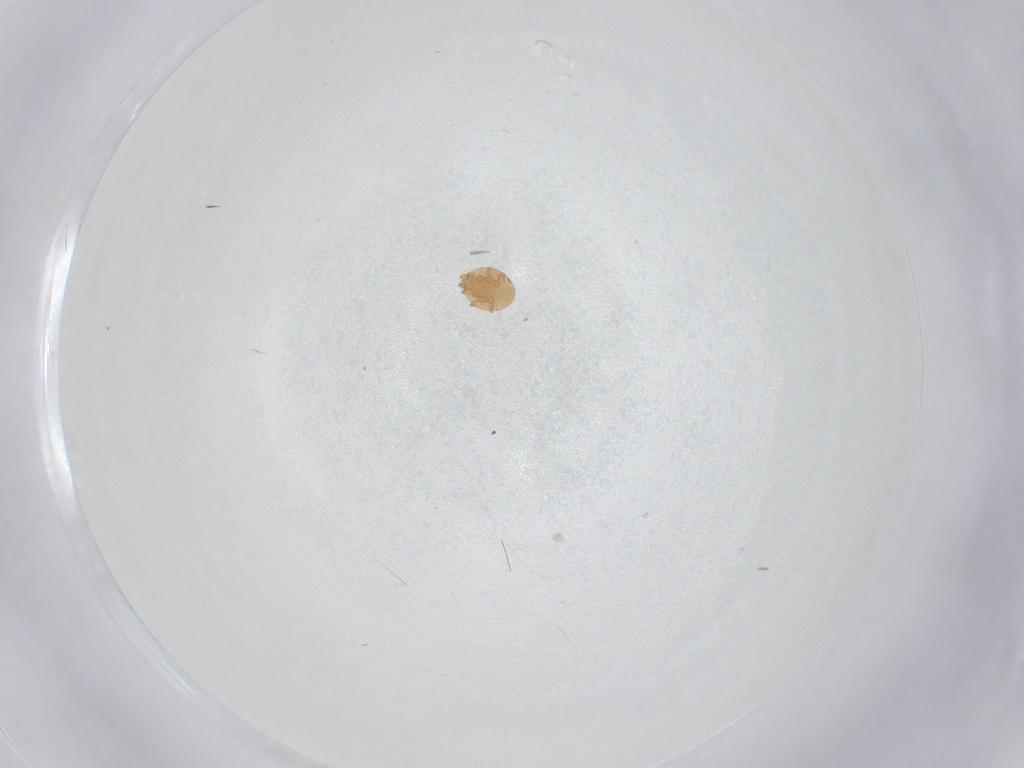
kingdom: Animalia
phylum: Arthropoda
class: Arachnida
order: Mesostigmata
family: Trematuridae
